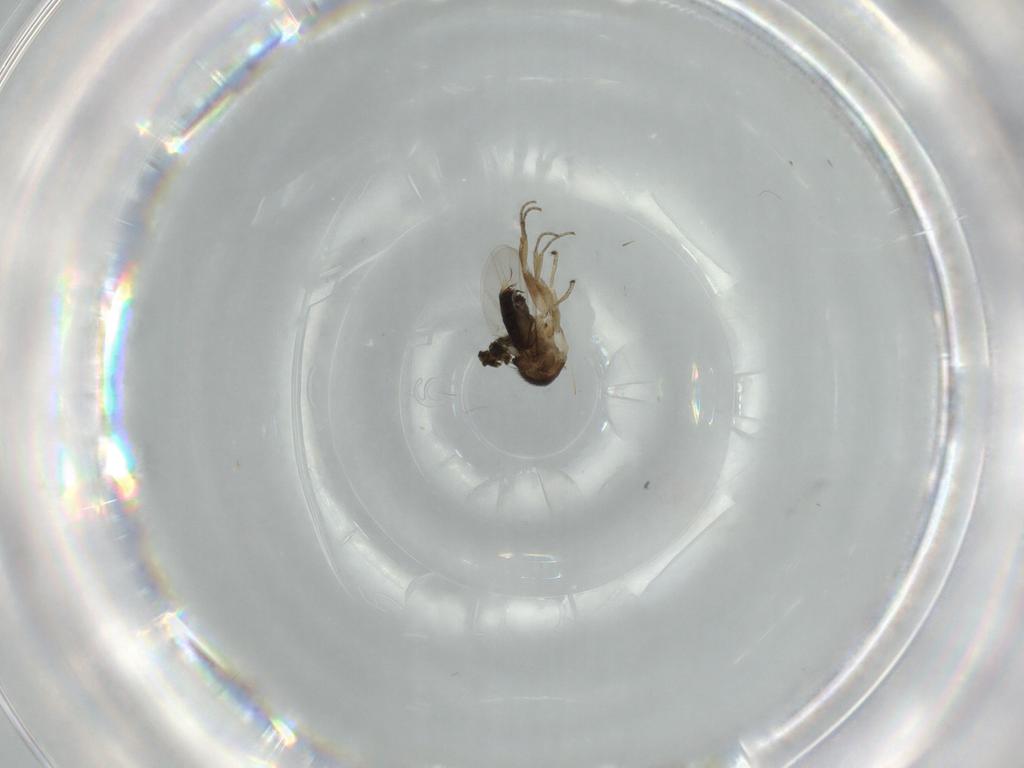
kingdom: Animalia
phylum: Arthropoda
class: Insecta
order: Diptera
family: Phoridae
